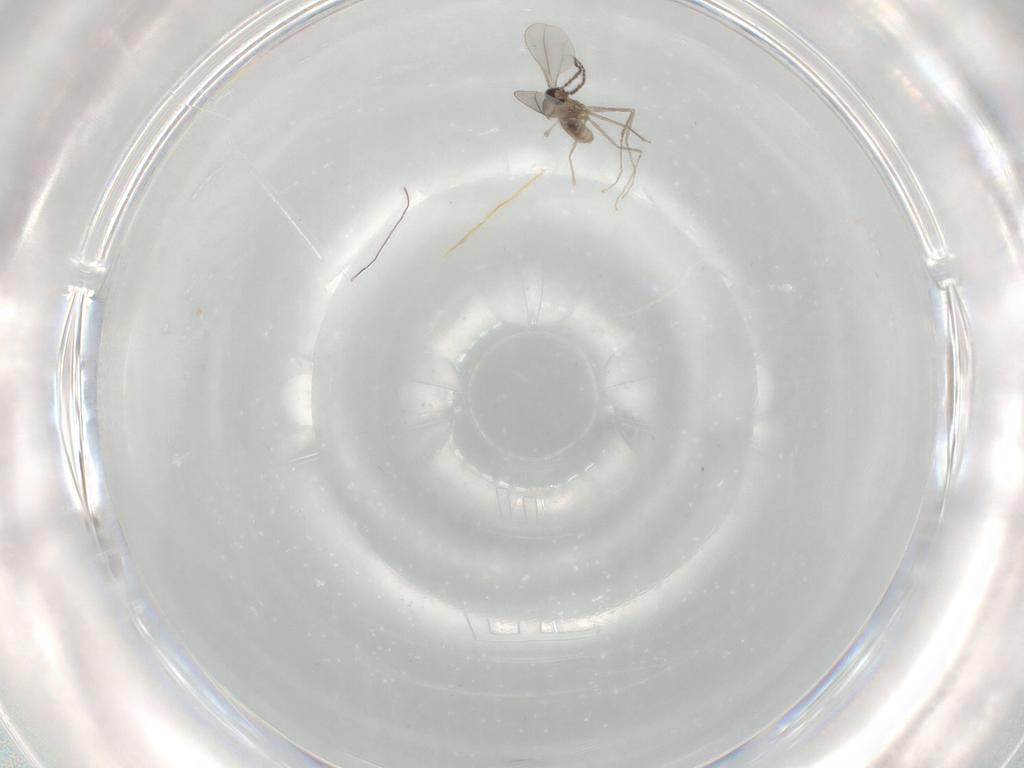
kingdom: Animalia
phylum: Arthropoda
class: Insecta
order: Diptera
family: Cecidomyiidae
